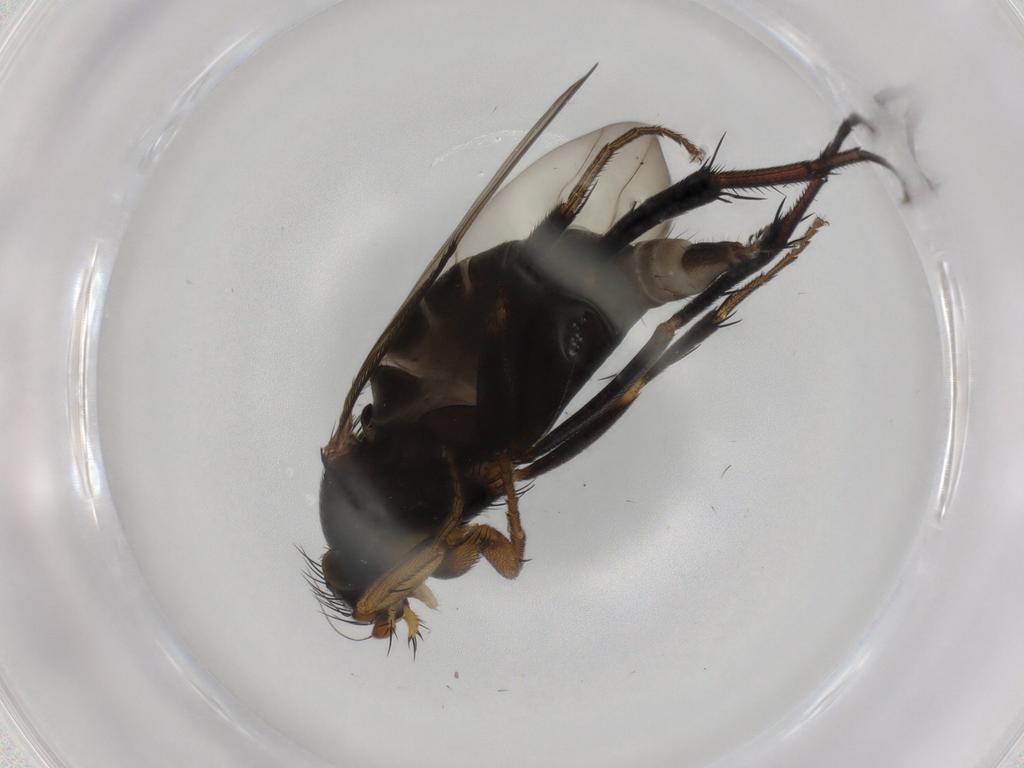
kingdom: Animalia
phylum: Arthropoda
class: Insecta
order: Diptera
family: Phoridae
